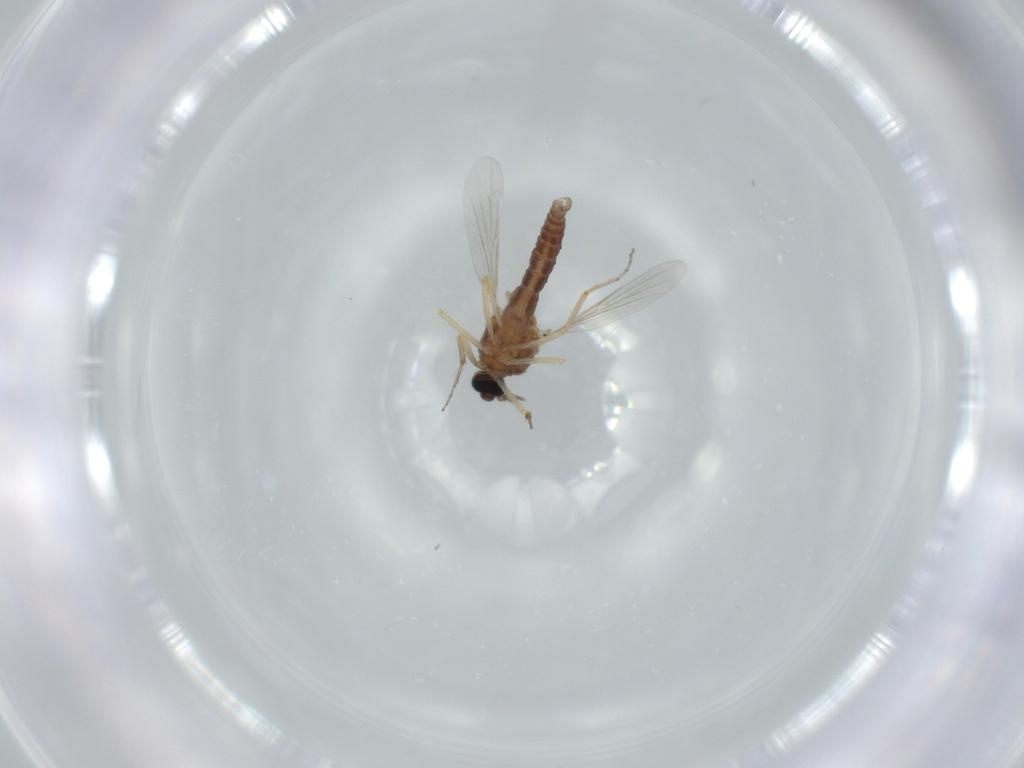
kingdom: Animalia
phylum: Arthropoda
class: Insecta
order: Diptera
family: Ceratopogonidae
